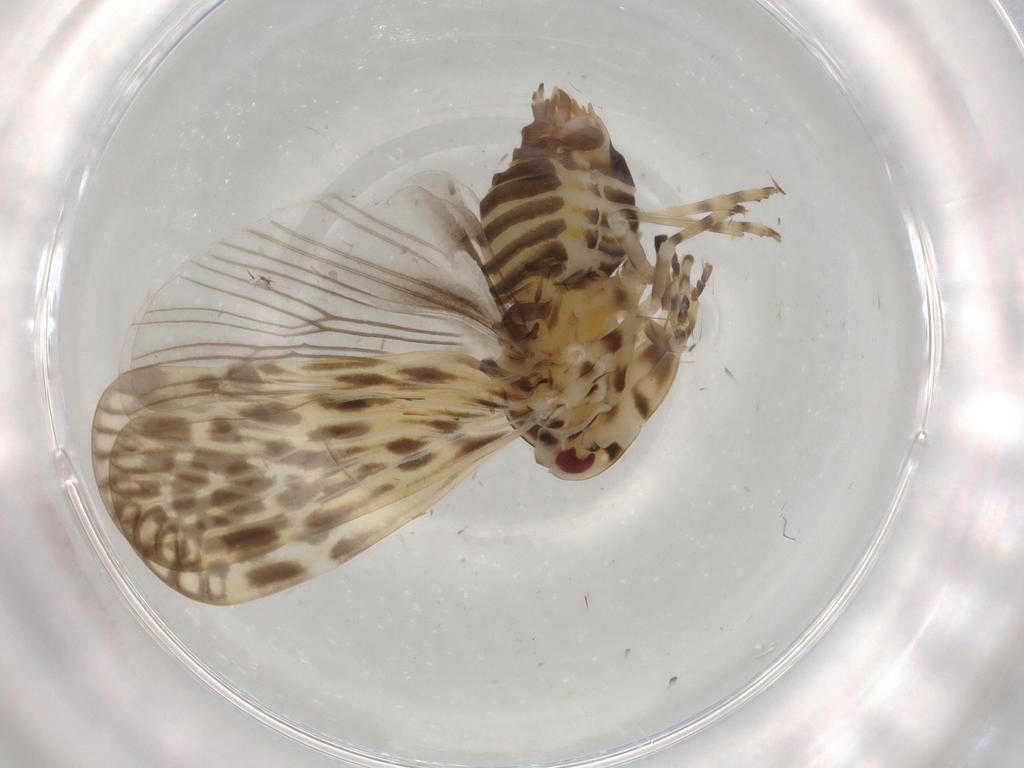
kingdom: Animalia
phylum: Arthropoda
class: Insecta
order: Hemiptera
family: Derbidae
